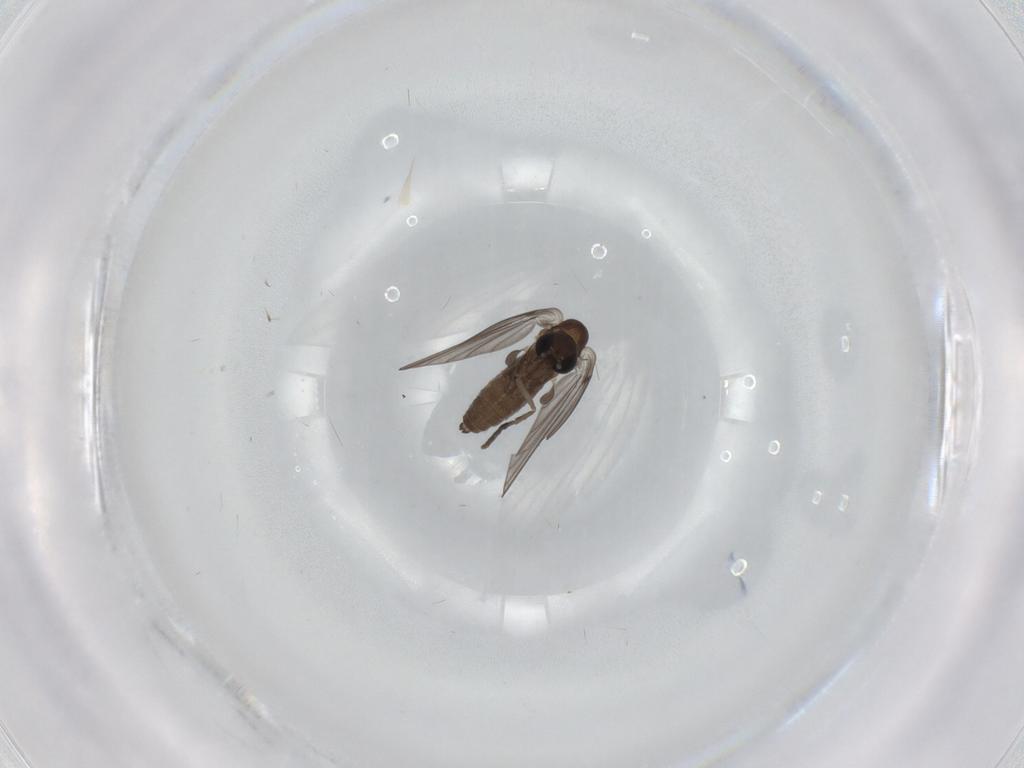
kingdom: Animalia
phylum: Arthropoda
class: Insecta
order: Diptera
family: Psychodidae
